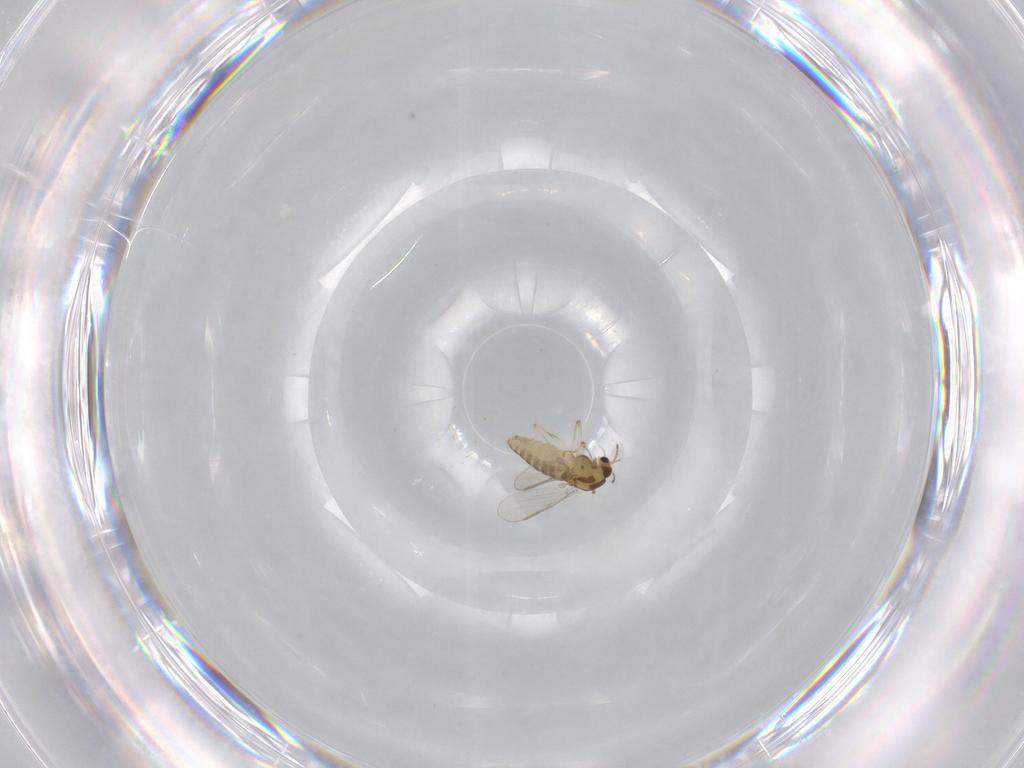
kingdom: Animalia
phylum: Arthropoda
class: Insecta
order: Diptera
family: Chironomidae
